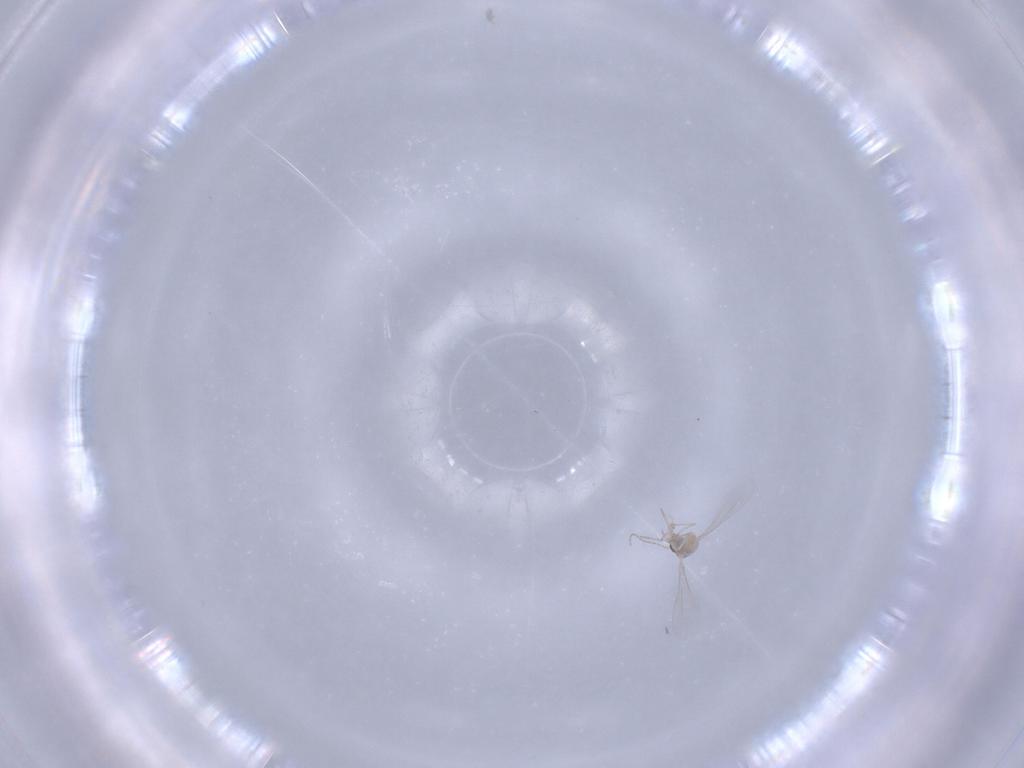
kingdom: Animalia
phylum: Arthropoda
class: Insecta
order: Diptera
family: Cecidomyiidae
